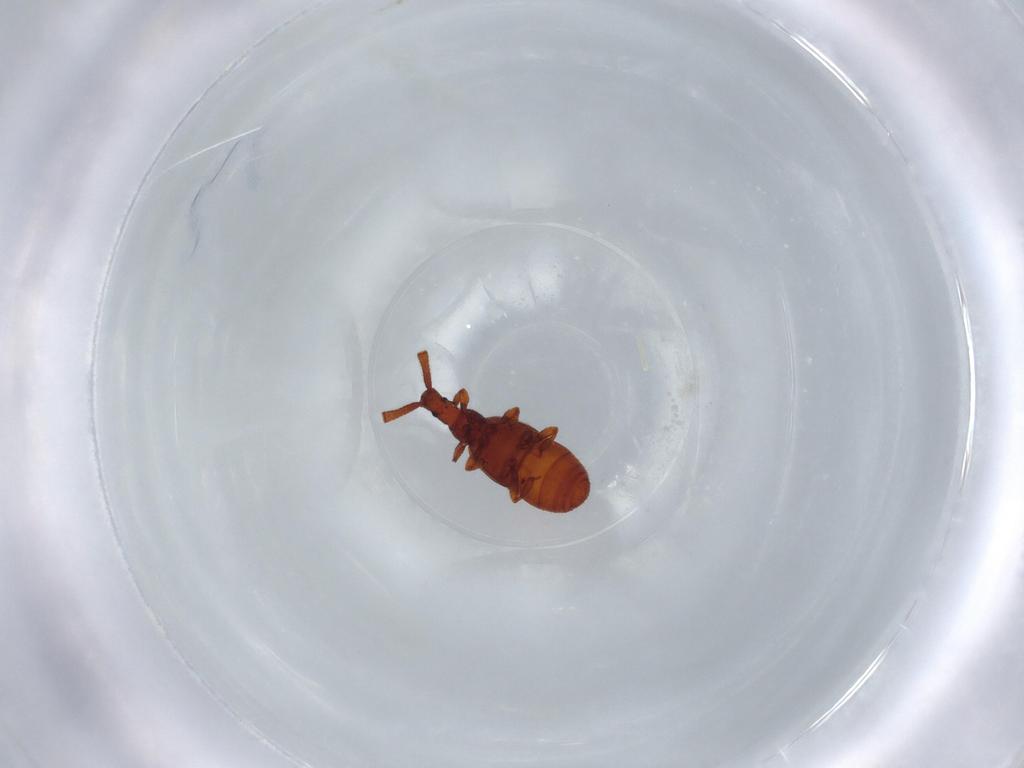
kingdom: Animalia
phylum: Arthropoda
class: Insecta
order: Coleoptera
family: Staphylinidae
